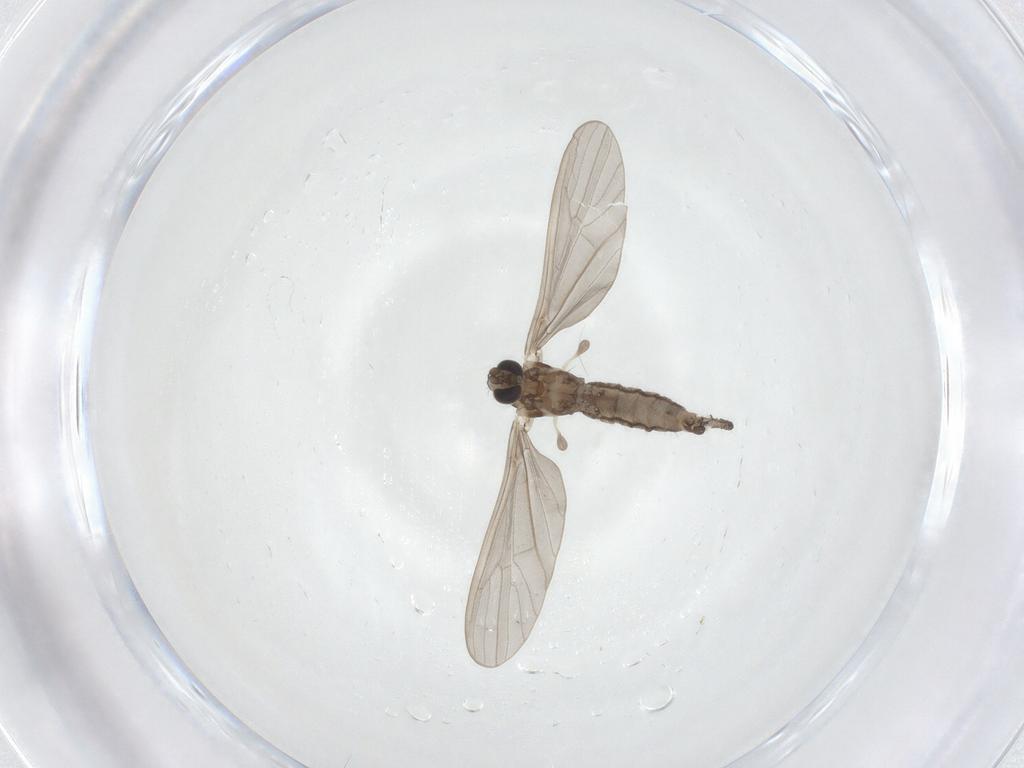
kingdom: Animalia
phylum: Arthropoda
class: Insecta
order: Diptera
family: Limoniidae
